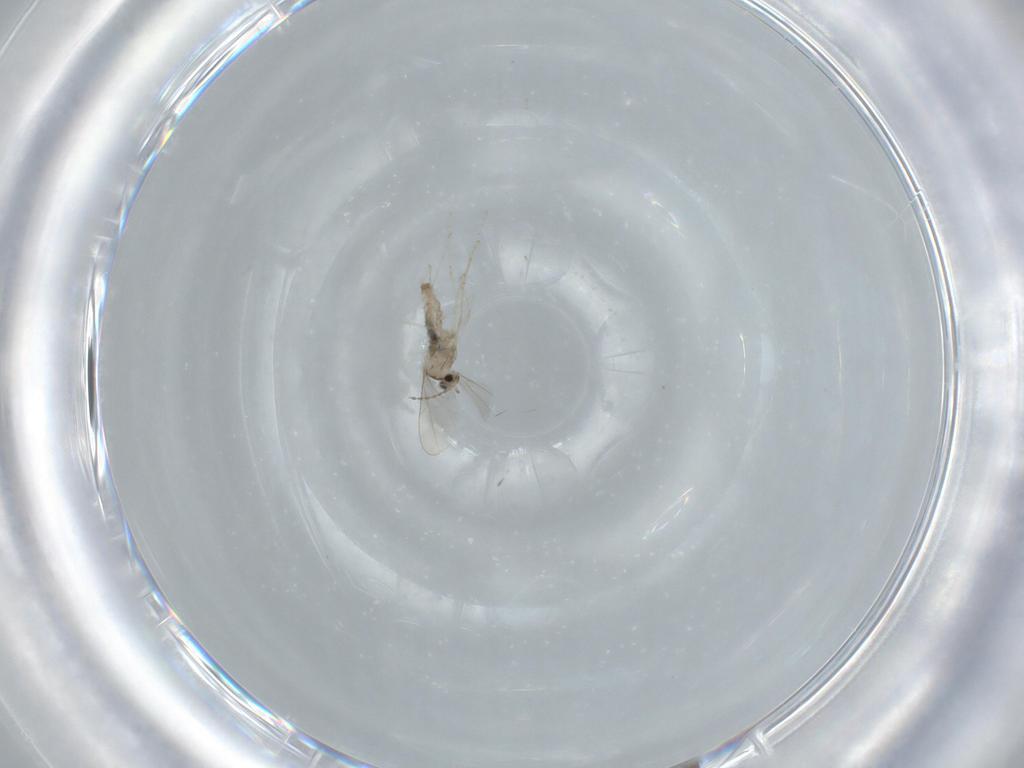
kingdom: Animalia
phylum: Arthropoda
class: Insecta
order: Diptera
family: Cecidomyiidae
